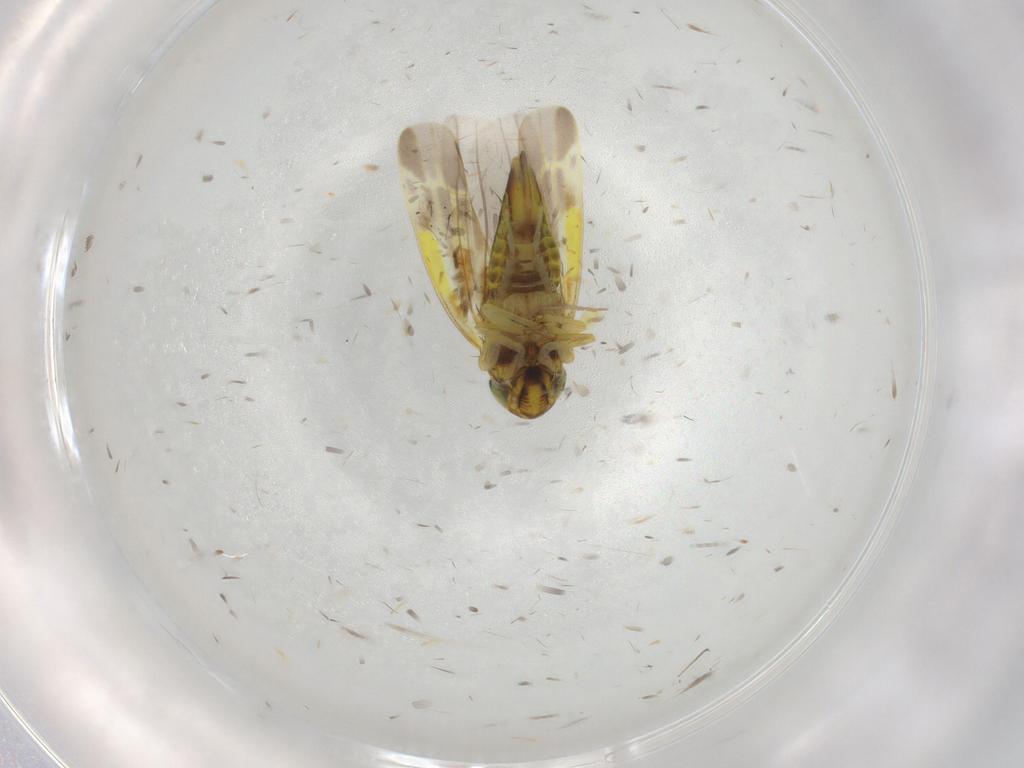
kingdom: Animalia
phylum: Arthropoda
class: Insecta
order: Hemiptera
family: Cicadellidae
